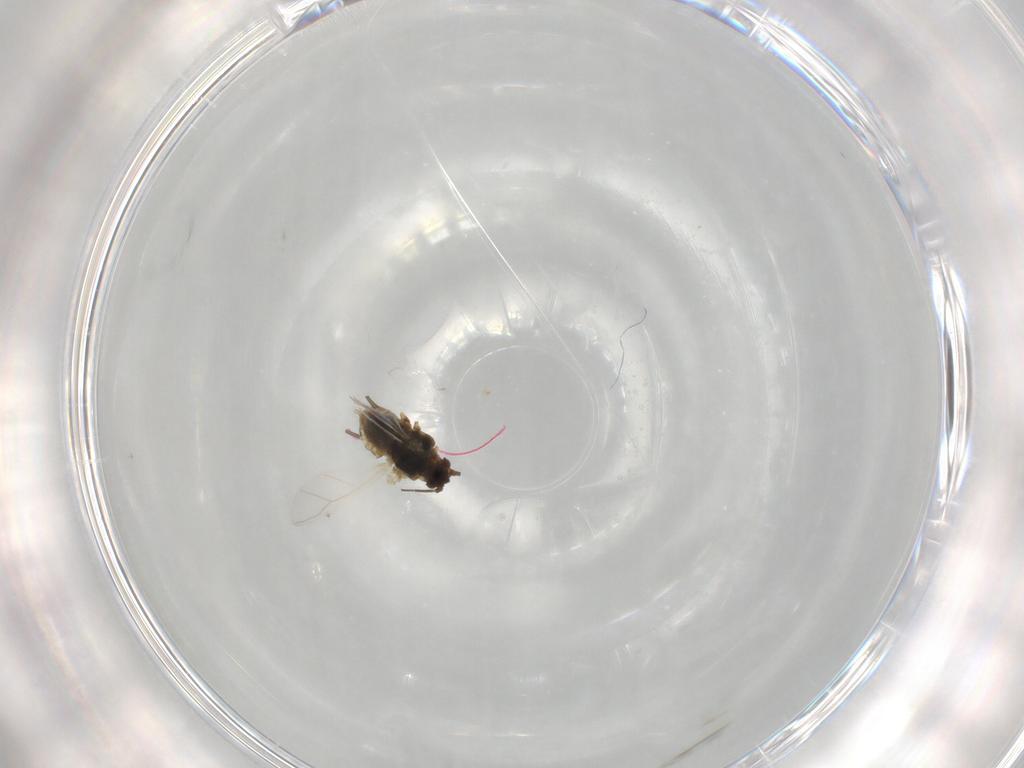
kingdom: Animalia
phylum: Arthropoda
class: Insecta
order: Hemiptera
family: Aphididae
